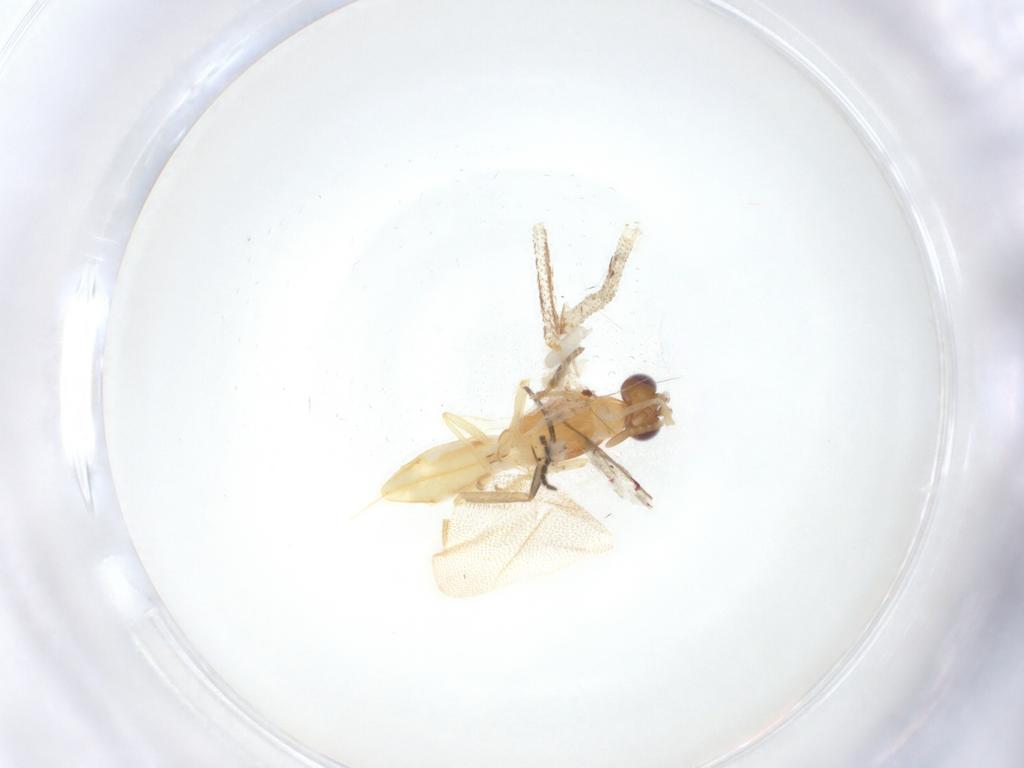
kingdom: Animalia
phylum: Arthropoda
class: Insecta
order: Diptera
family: Sciaridae
